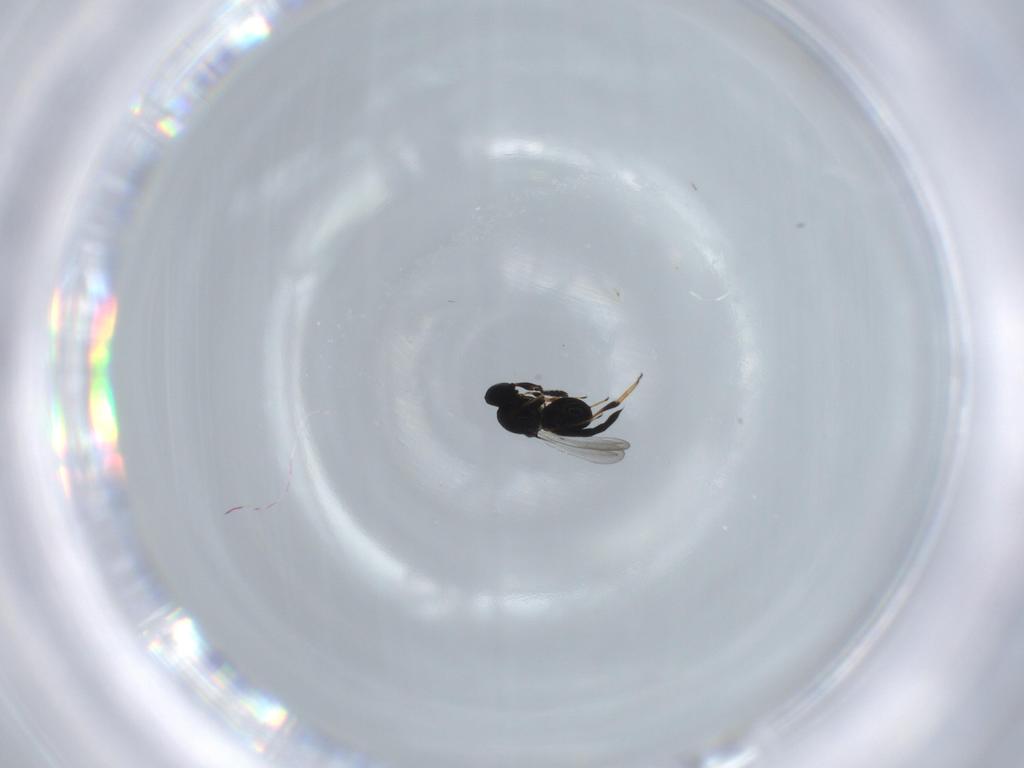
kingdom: Animalia
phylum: Arthropoda
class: Insecta
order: Hymenoptera
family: Platygastridae
